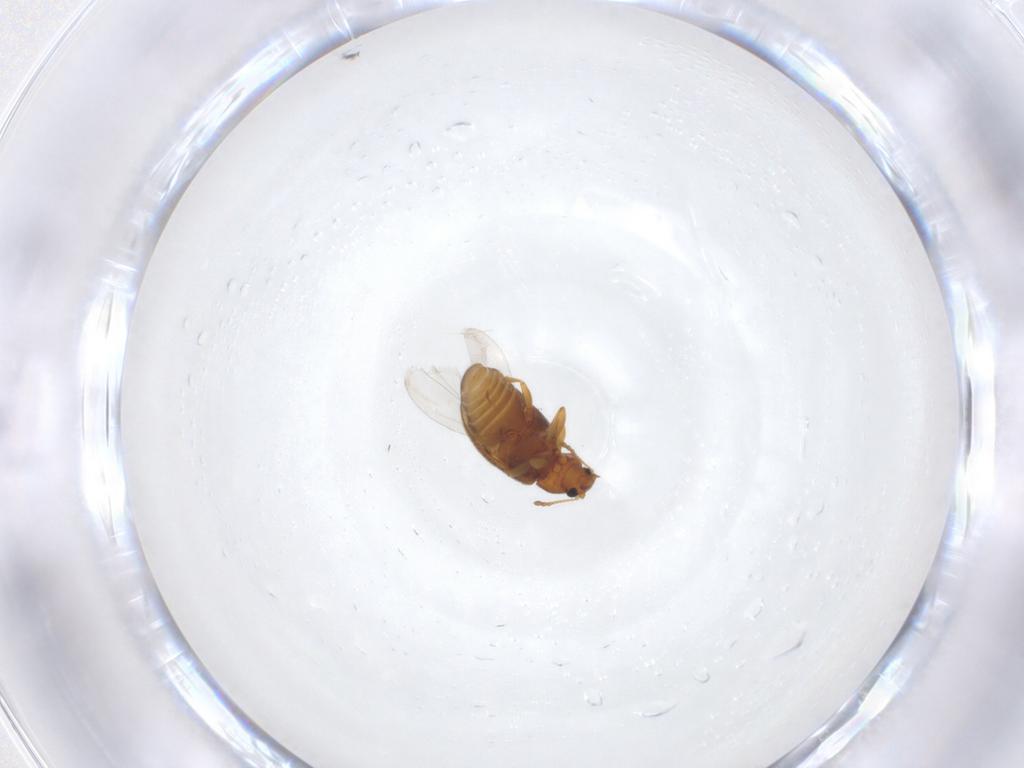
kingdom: Animalia
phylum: Arthropoda
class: Insecta
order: Coleoptera
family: Latridiidae
